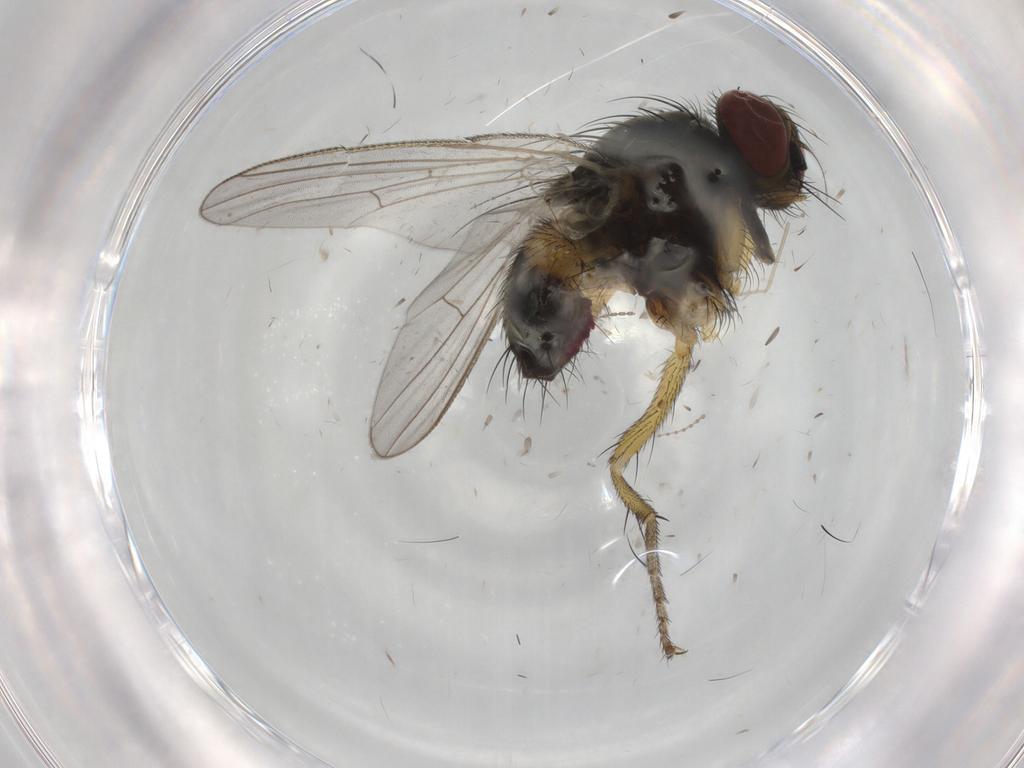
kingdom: Animalia
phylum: Arthropoda
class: Insecta
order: Diptera
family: Muscidae
